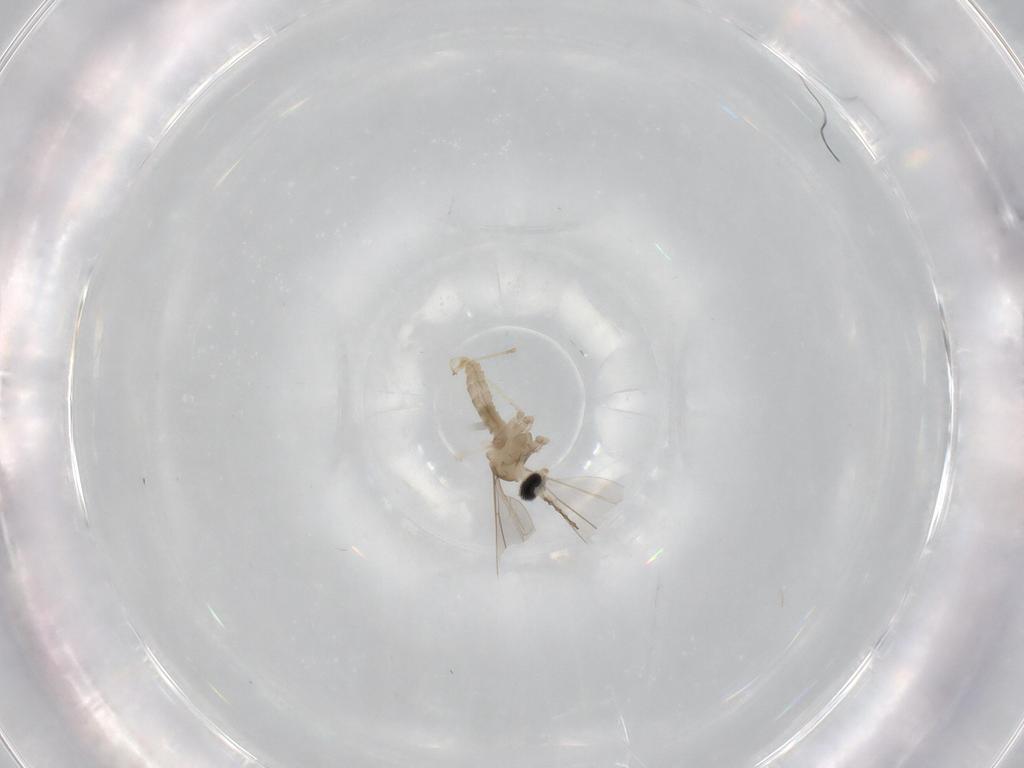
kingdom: Animalia
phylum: Arthropoda
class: Insecta
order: Diptera
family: Cecidomyiidae
